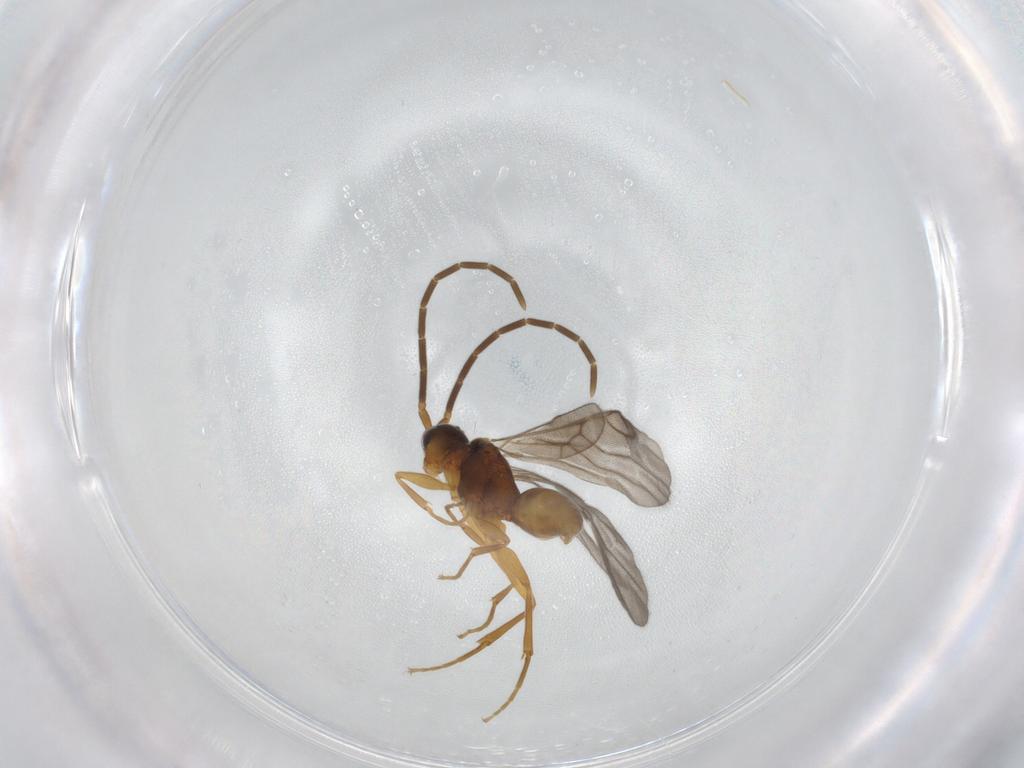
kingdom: Animalia
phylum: Arthropoda
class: Insecta
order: Hymenoptera
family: Embolemidae
